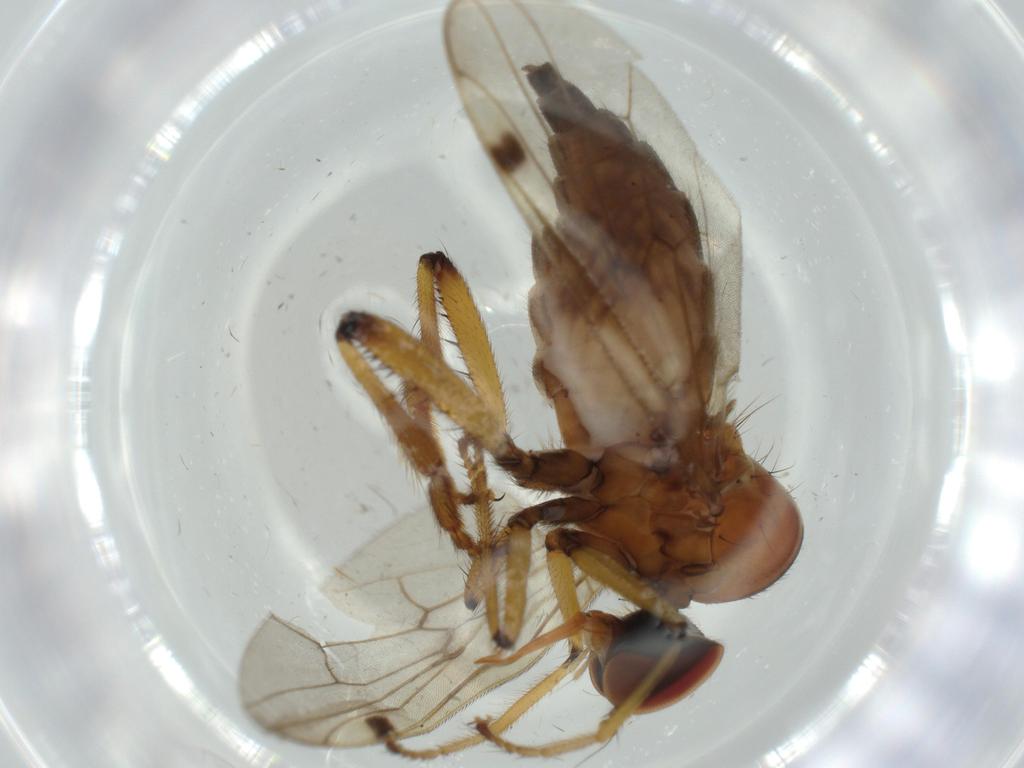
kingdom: Animalia
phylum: Arthropoda
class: Insecta
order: Diptera
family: Hybotidae
